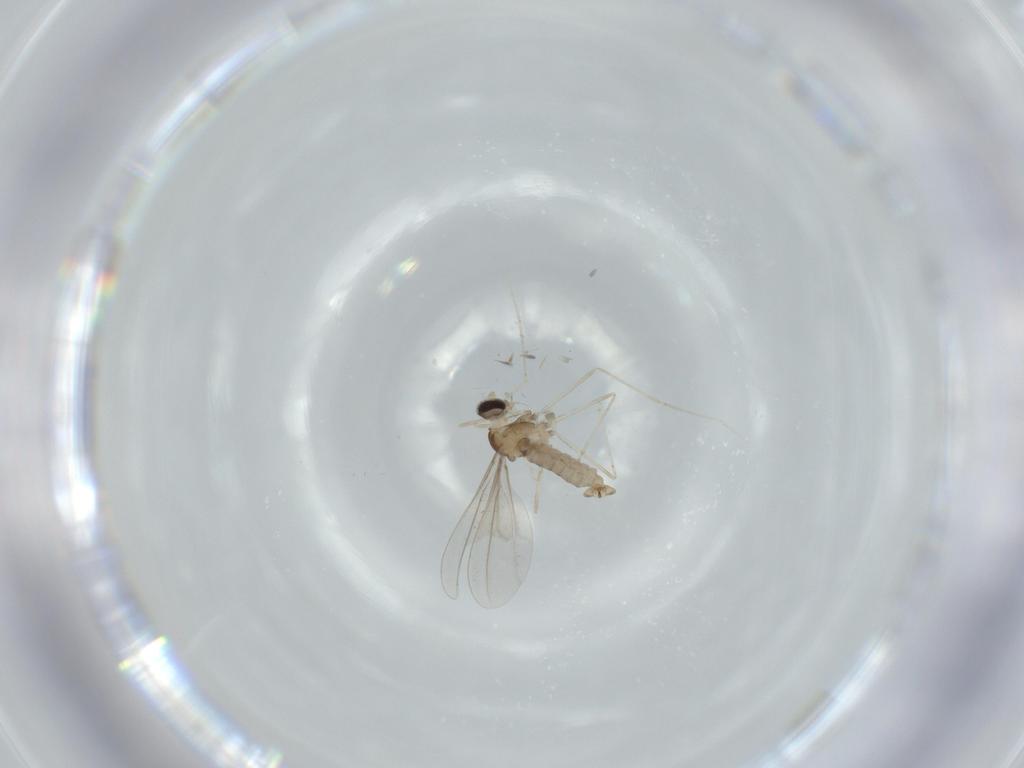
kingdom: Animalia
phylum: Arthropoda
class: Insecta
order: Diptera
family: Cecidomyiidae
